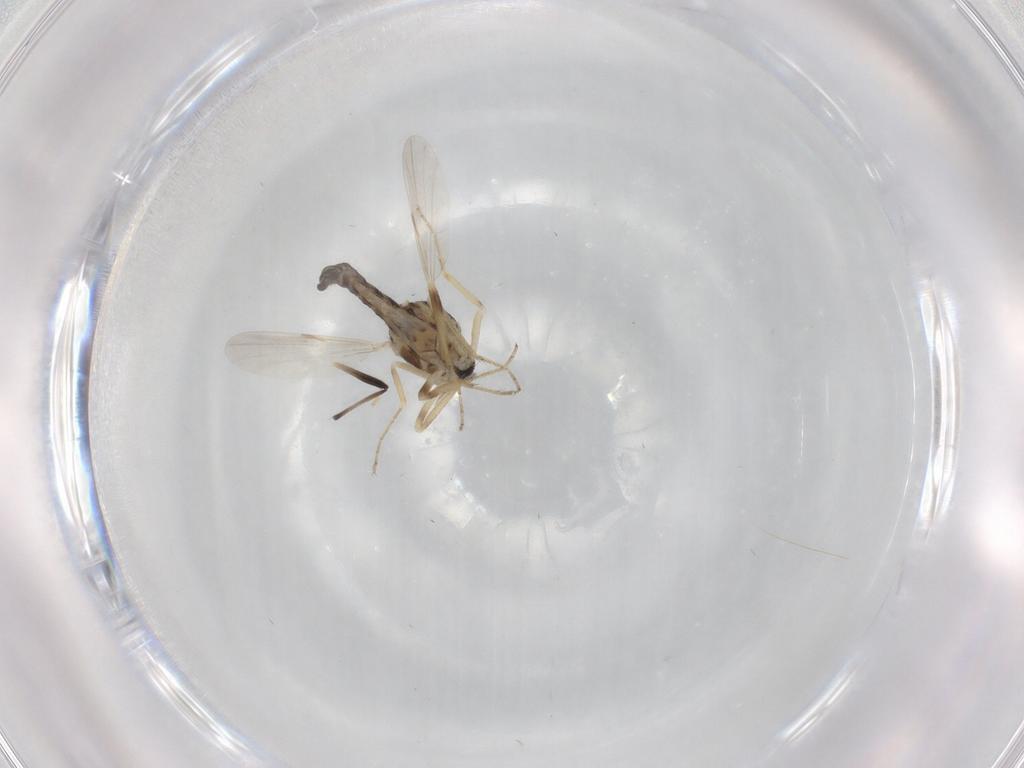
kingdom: Animalia
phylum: Arthropoda
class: Insecta
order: Diptera
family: Ceratopogonidae
